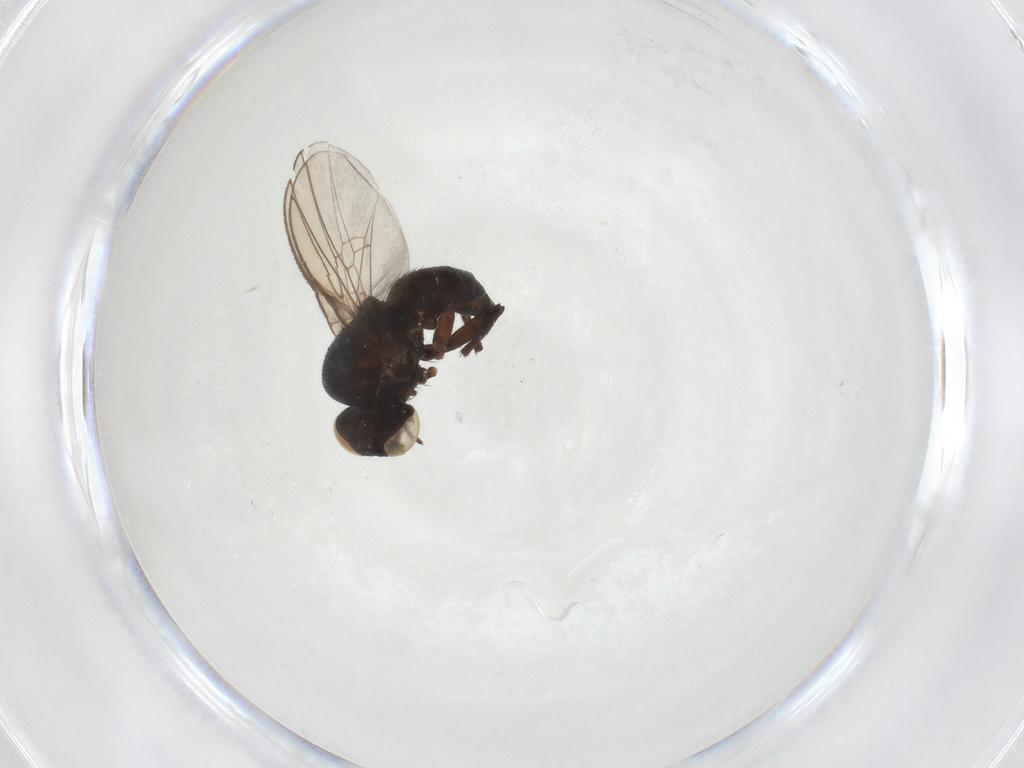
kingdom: Animalia
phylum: Arthropoda
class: Insecta
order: Diptera
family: Agromyzidae
